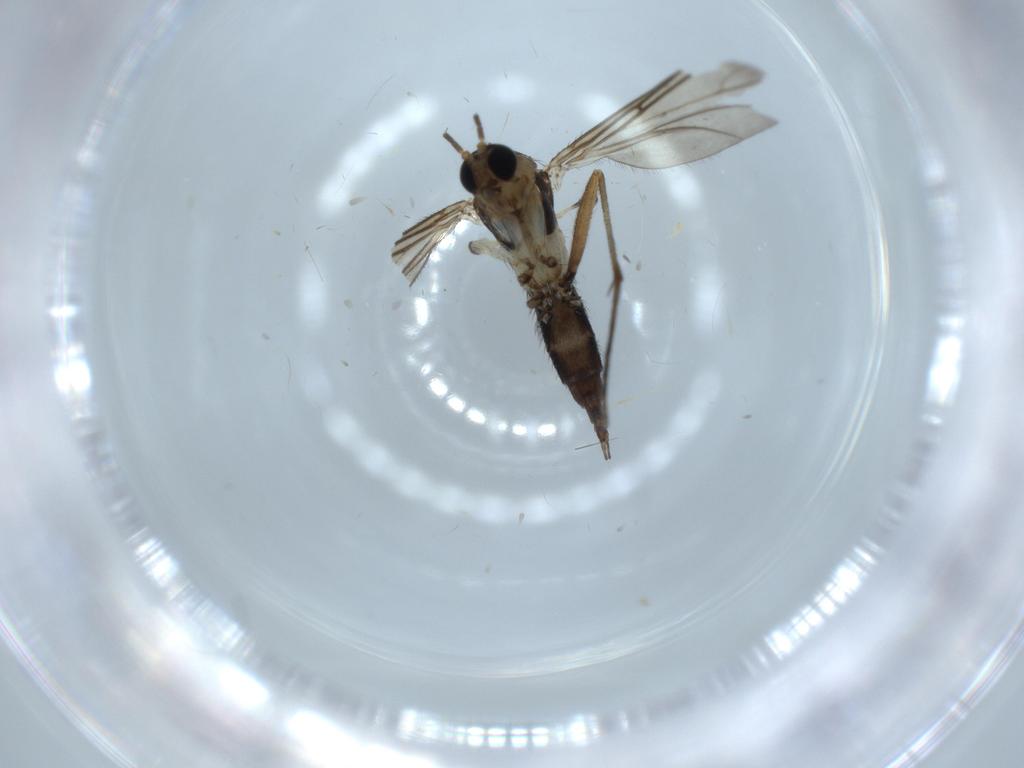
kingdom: Animalia
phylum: Arthropoda
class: Insecta
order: Diptera
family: Sciaridae
